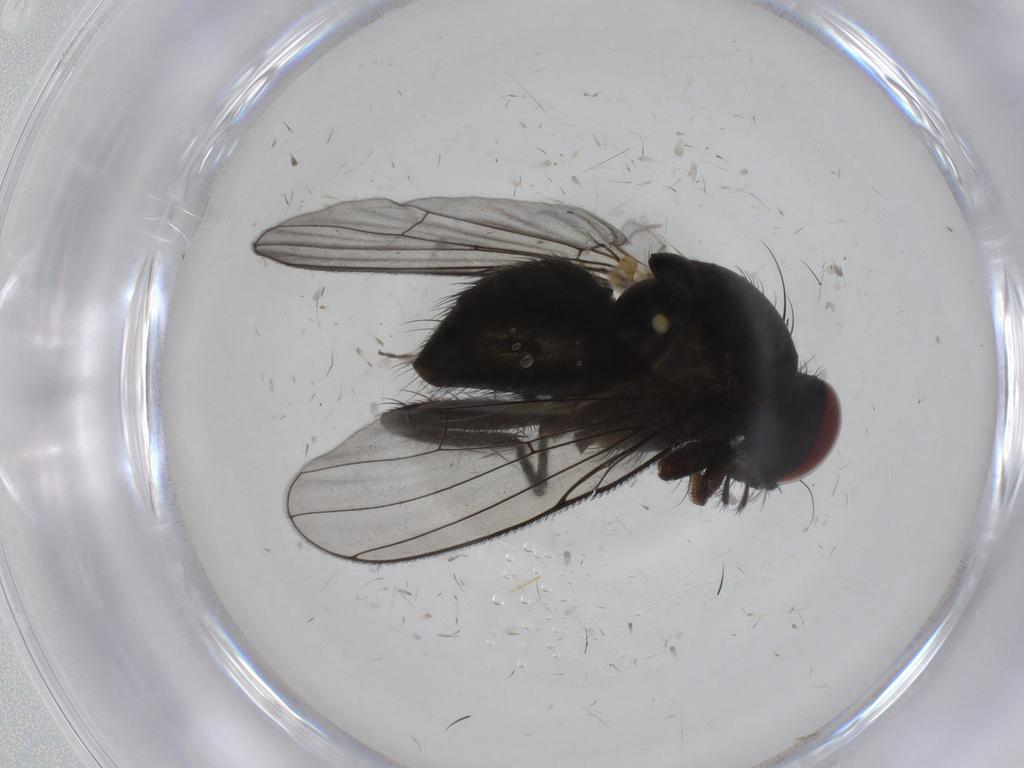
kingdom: Animalia
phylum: Arthropoda
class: Insecta
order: Diptera
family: Muscidae
